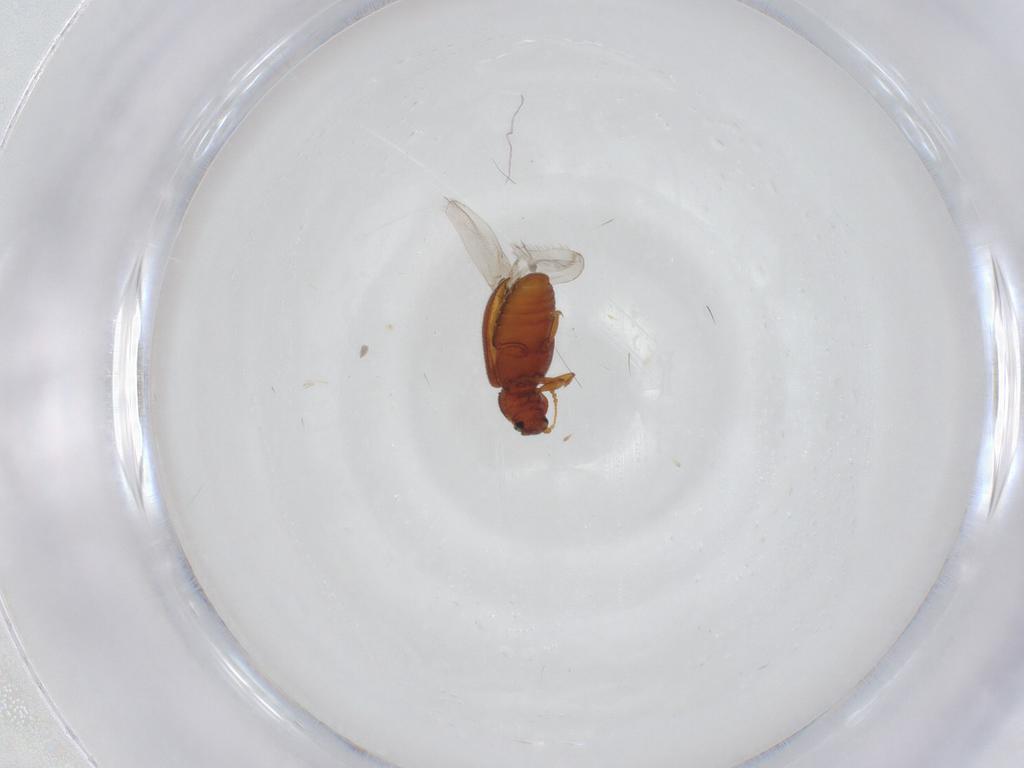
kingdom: Animalia
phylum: Arthropoda
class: Insecta
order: Coleoptera
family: Latridiidae
